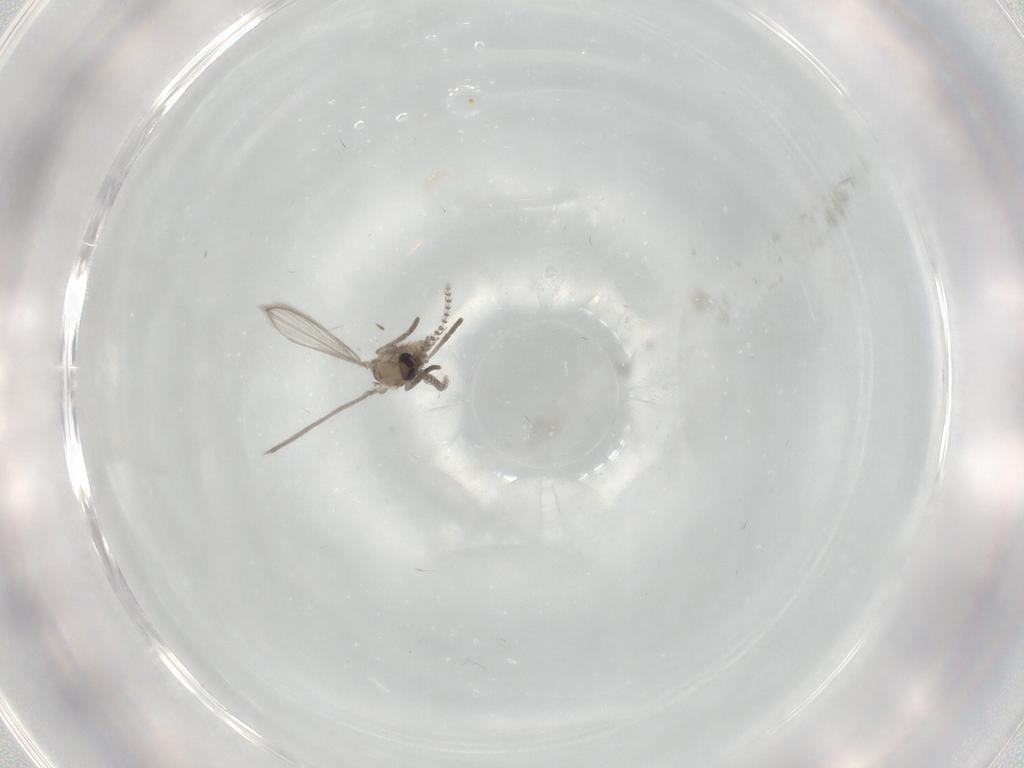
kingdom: Animalia
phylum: Arthropoda
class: Insecta
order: Diptera
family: Psychodidae
